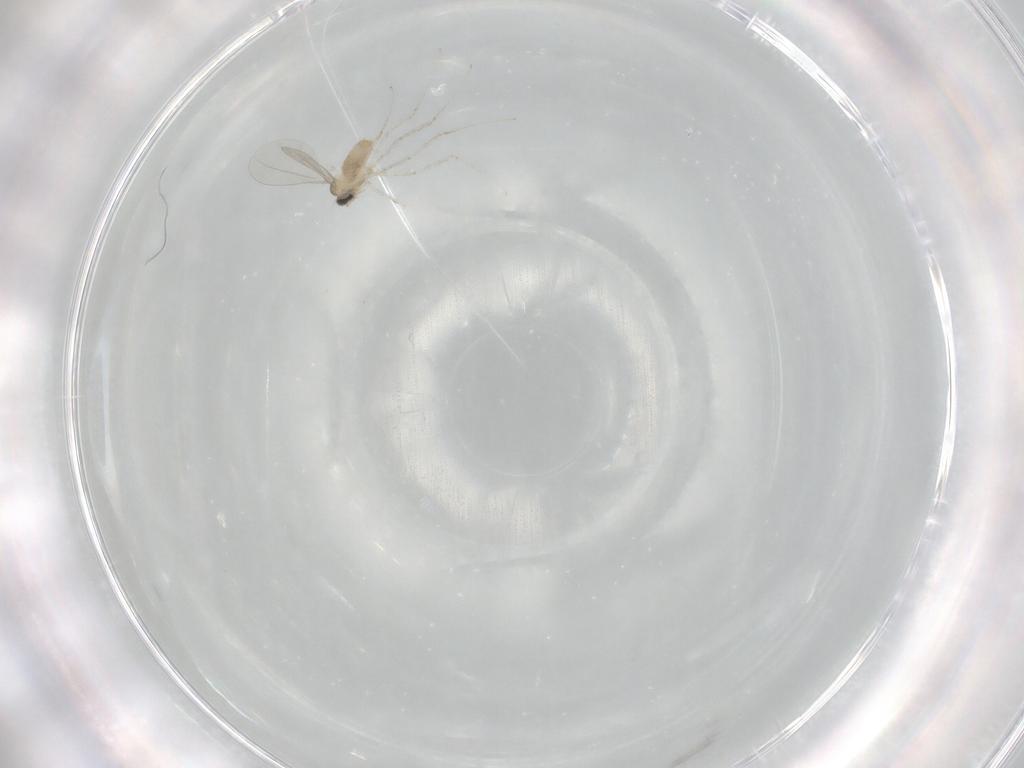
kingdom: Animalia
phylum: Arthropoda
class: Insecta
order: Diptera
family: Cecidomyiidae
